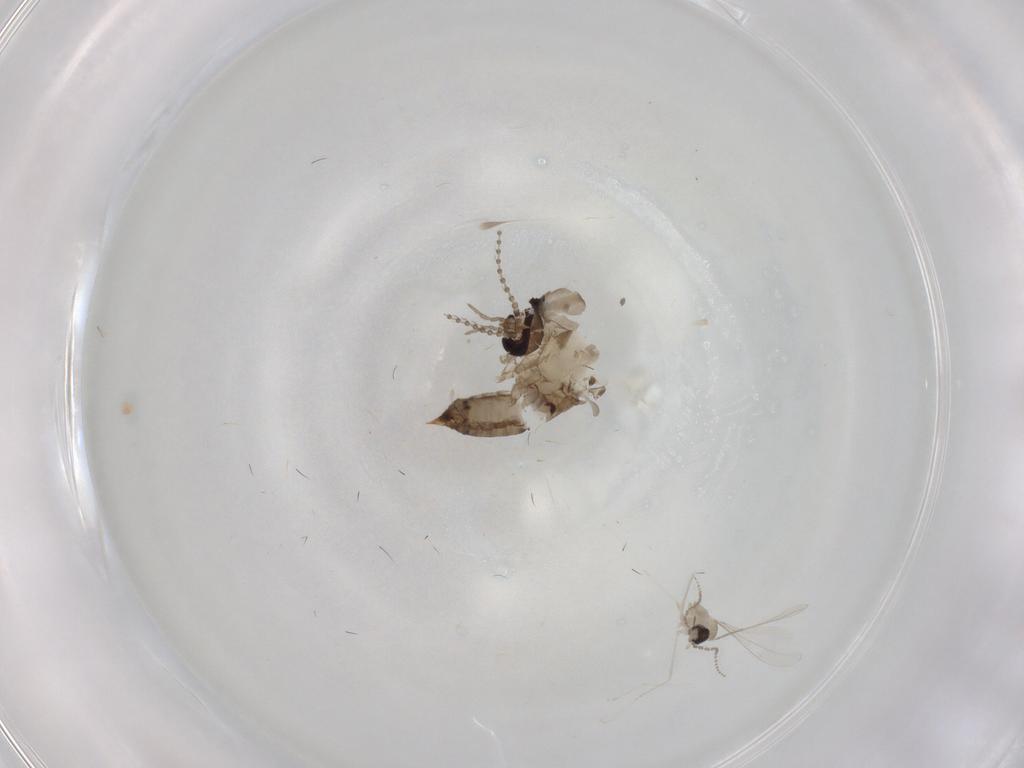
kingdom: Animalia
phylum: Arthropoda
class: Insecta
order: Diptera
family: Psychodidae
